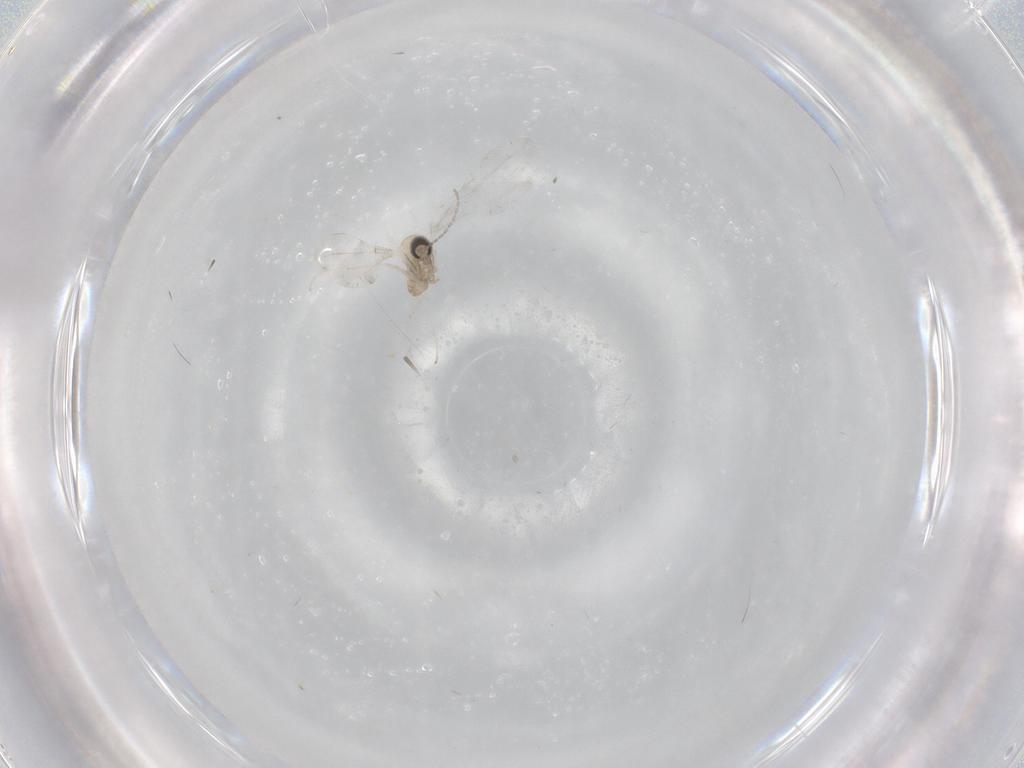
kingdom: Animalia
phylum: Arthropoda
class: Insecta
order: Diptera
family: Cecidomyiidae
